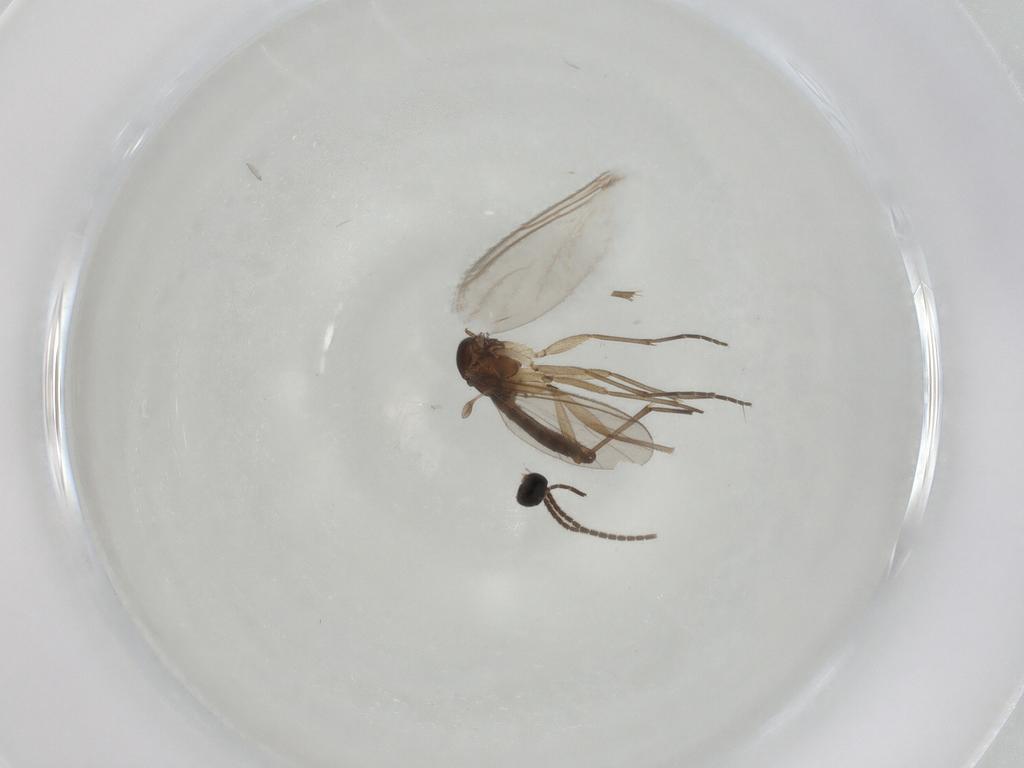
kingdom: Animalia
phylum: Arthropoda
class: Insecta
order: Diptera
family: Sciaridae
